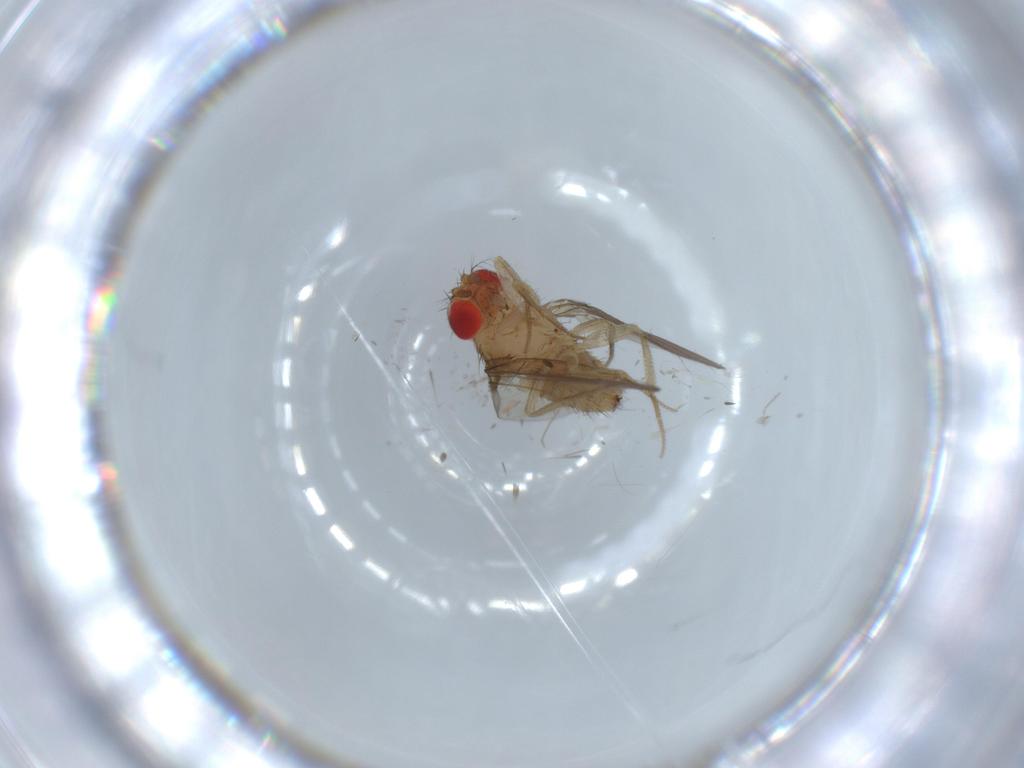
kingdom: Animalia
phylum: Arthropoda
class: Insecta
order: Diptera
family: Drosophilidae
